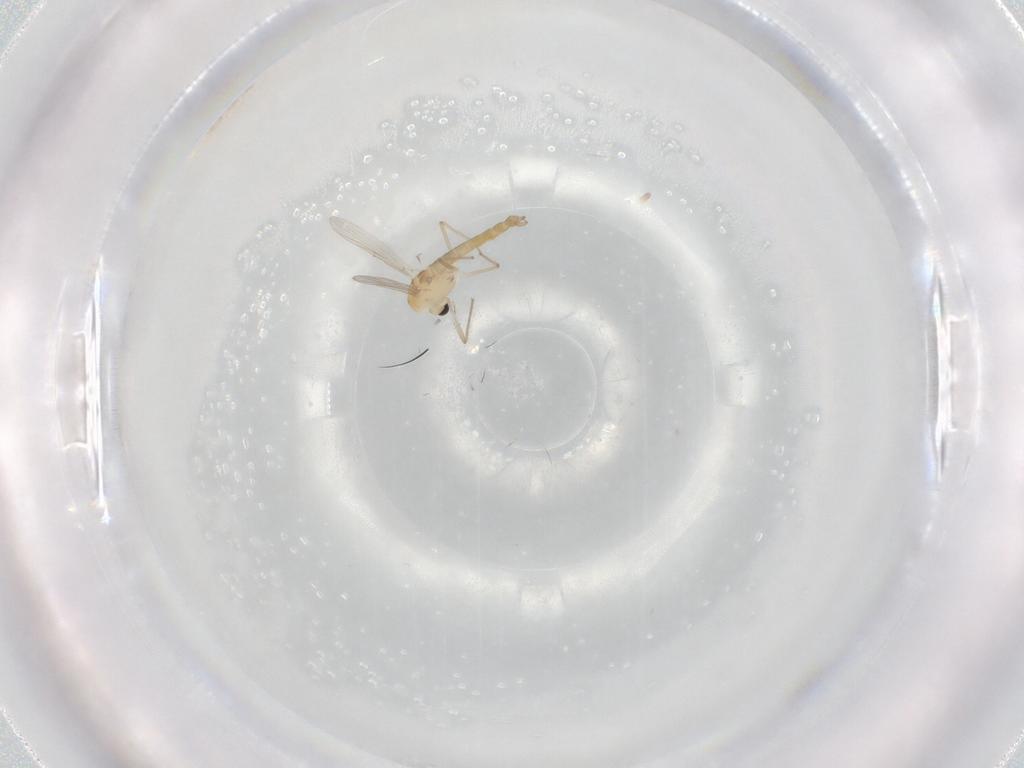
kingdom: Animalia
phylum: Arthropoda
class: Insecta
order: Diptera
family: Chironomidae
